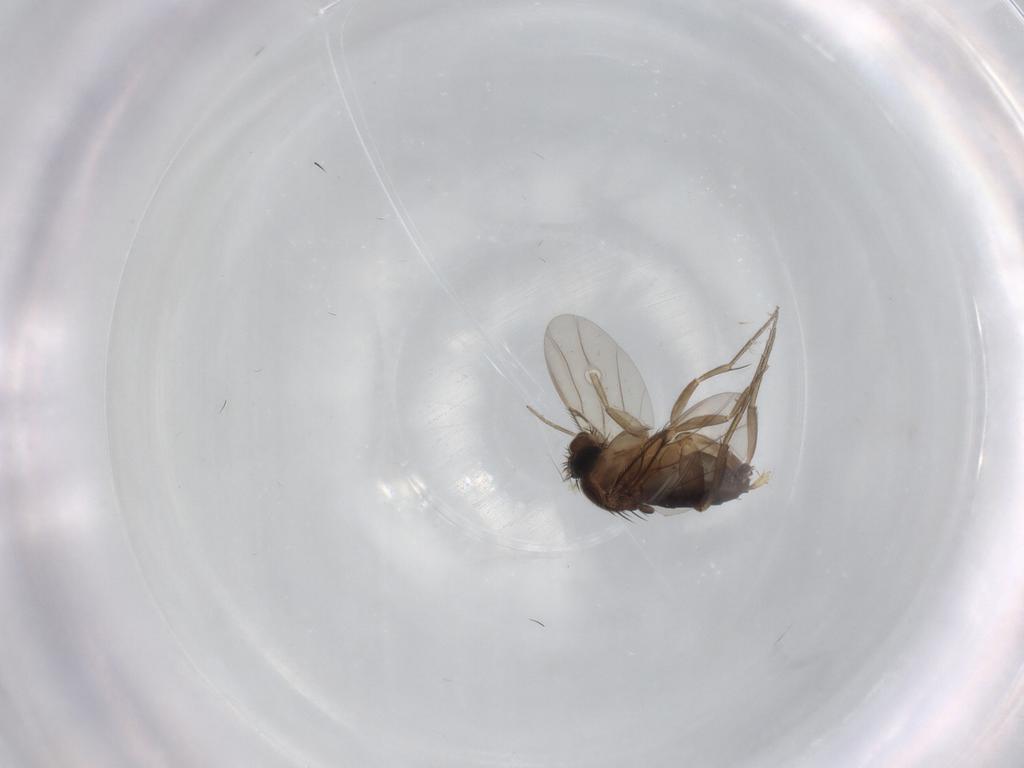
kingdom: Animalia
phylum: Arthropoda
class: Insecta
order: Diptera
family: Phoridae
